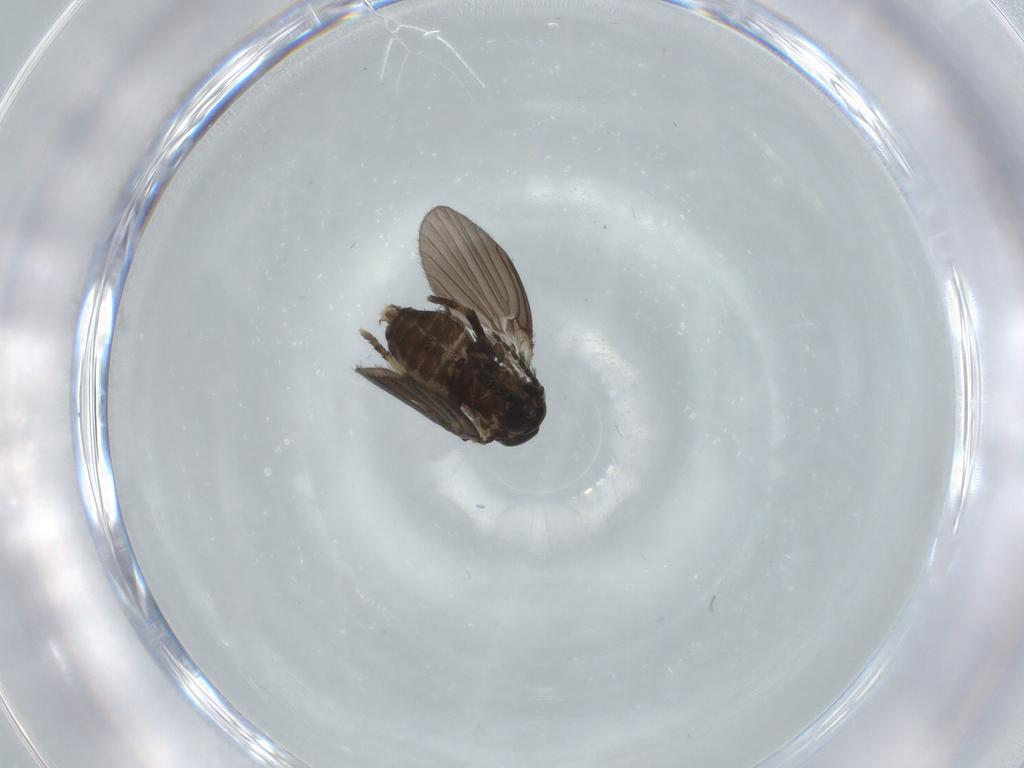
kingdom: Animalia
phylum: Arthropoda
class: Insecta
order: Diptera
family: Psychodidae
